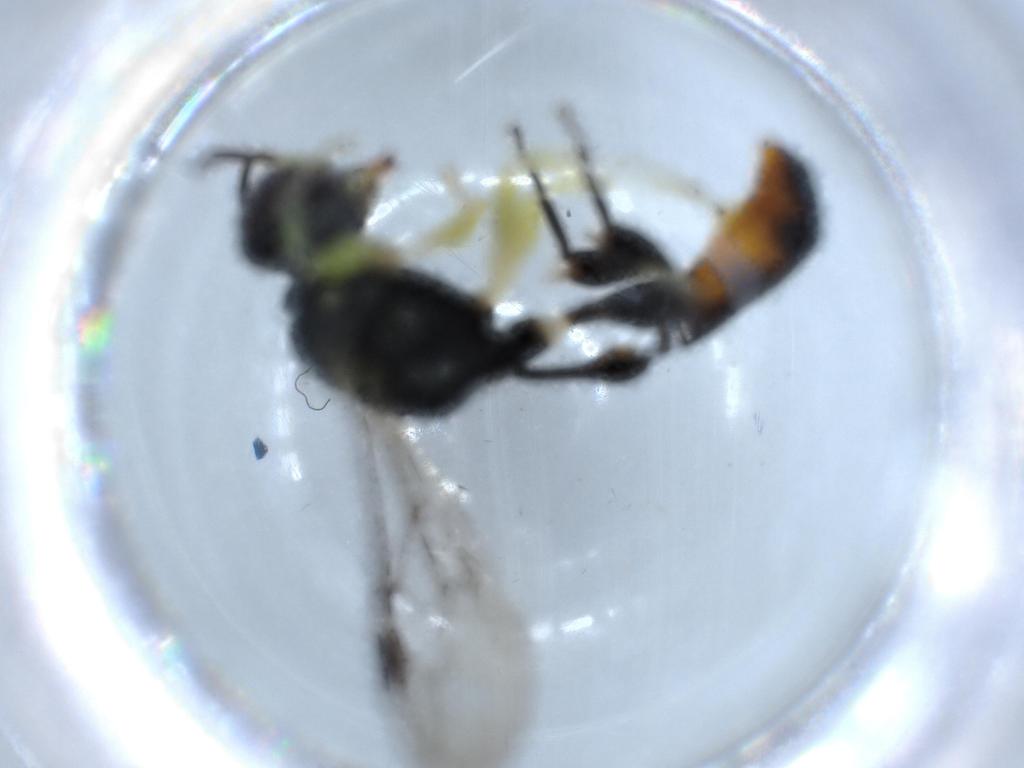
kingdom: Animalia
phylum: Arthropoda
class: Insecta
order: Hymenoptera
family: Crabronidae
